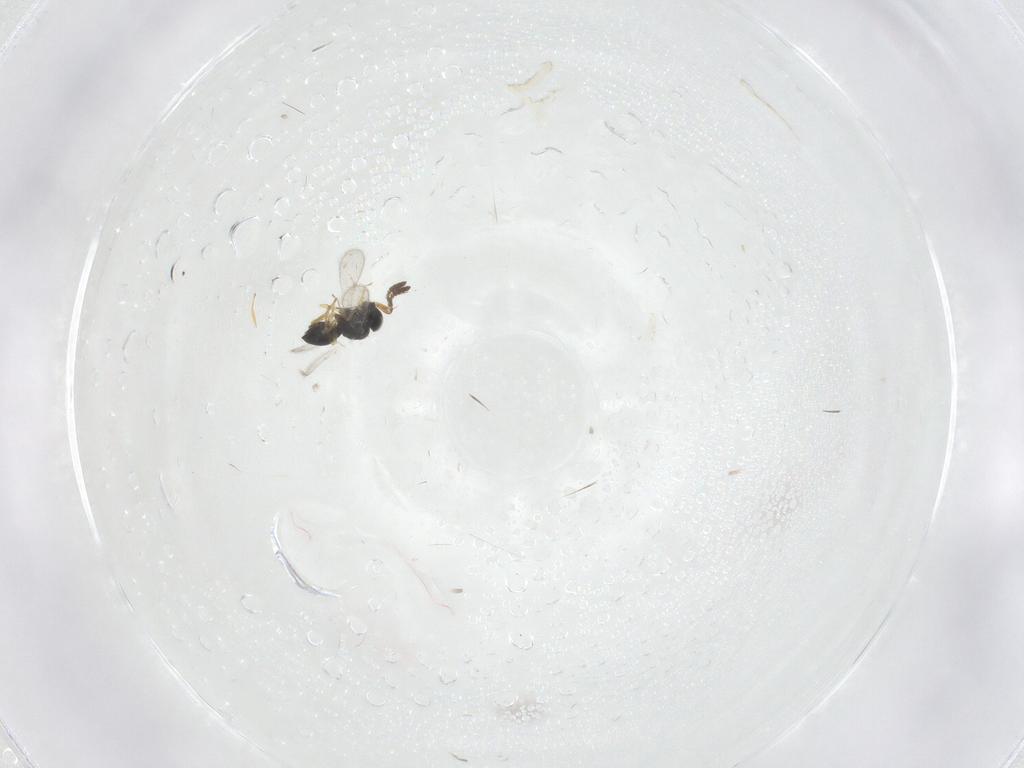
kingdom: Animalia
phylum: Arthropoda
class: Insecta
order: Hymenoptera
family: Scelionidae
